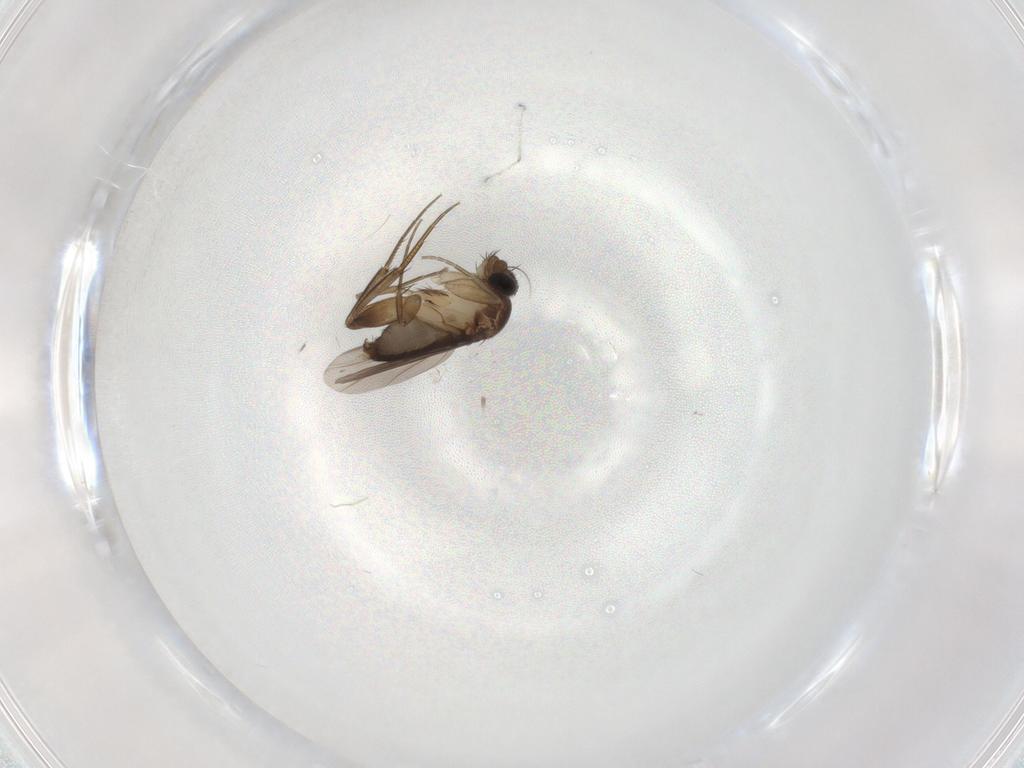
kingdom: Animalia
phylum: Arthropoda
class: Insecta
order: Diptera
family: Phoridae
